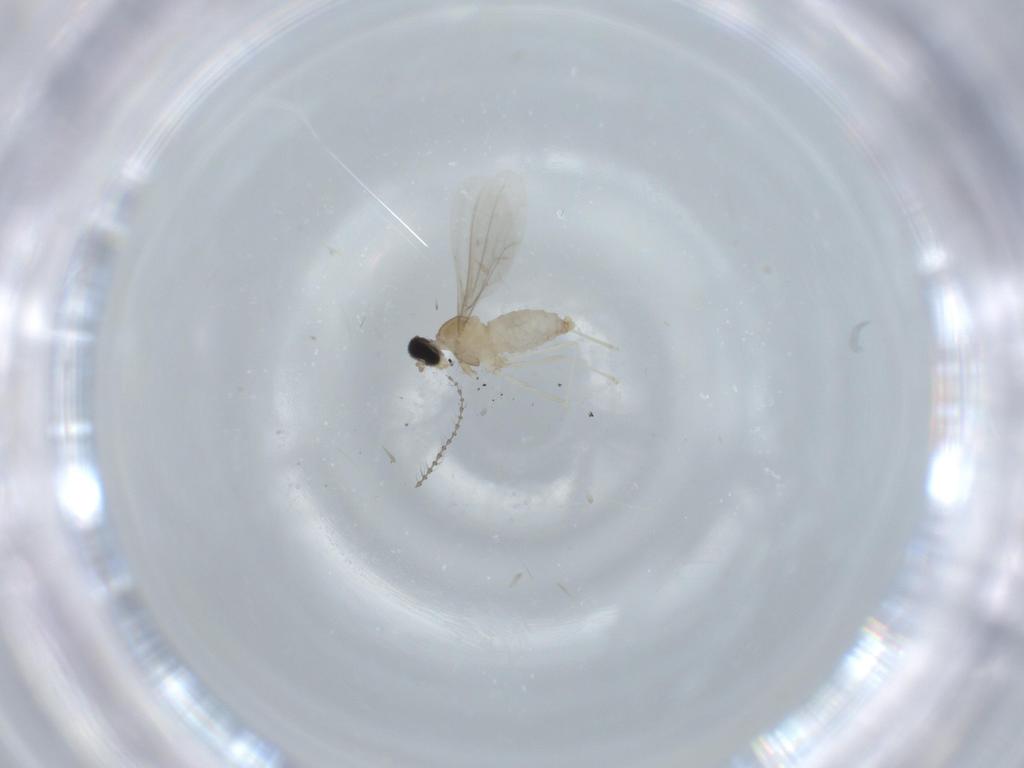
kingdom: Animalia
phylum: Arthropoda
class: Insecta
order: Diptera
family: Cecidomyiidae
